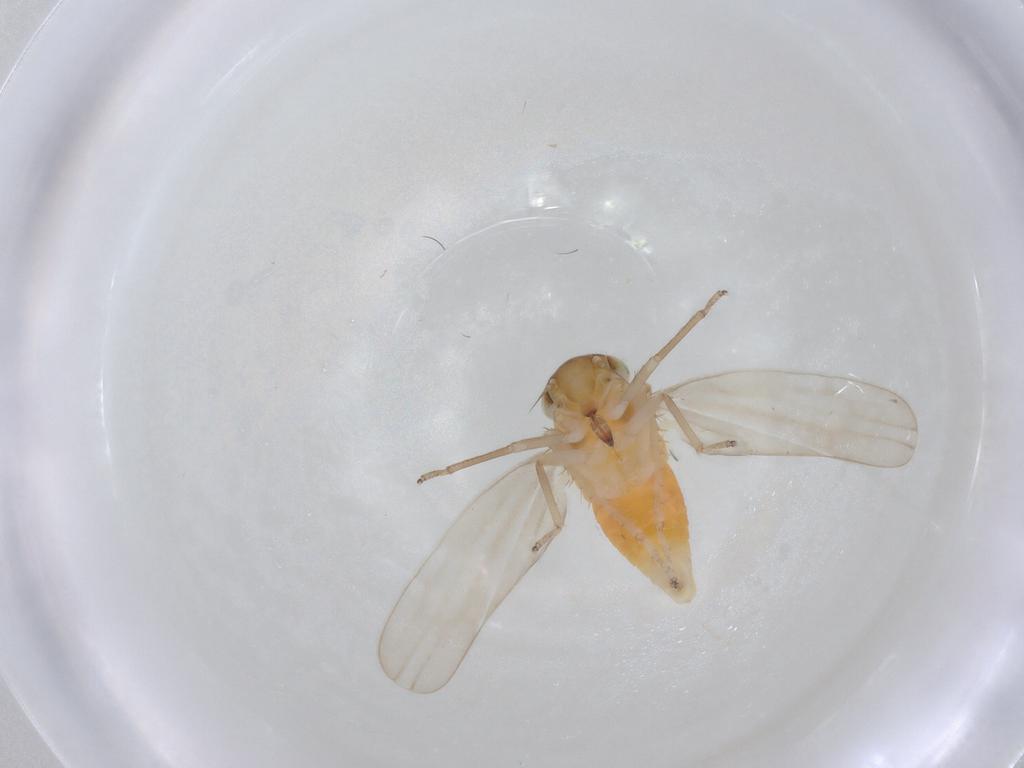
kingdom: Animalia
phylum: Arthropoda
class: Insecta
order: Hemiptera
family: Cicadellidae
